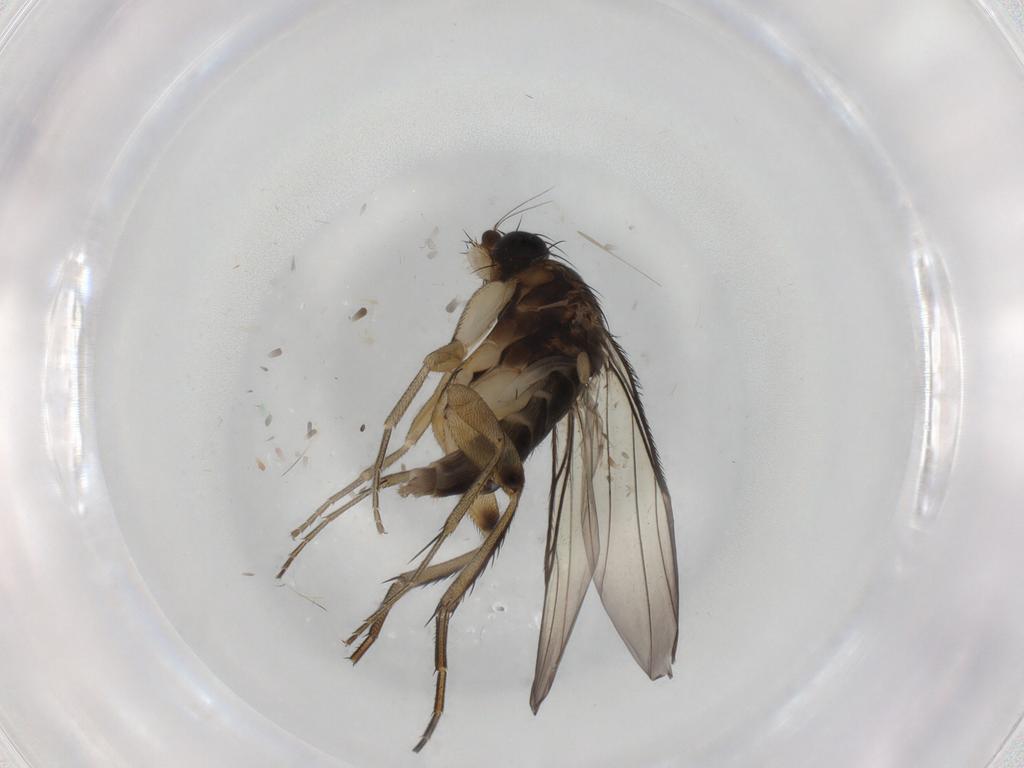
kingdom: Animalia
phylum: Arthropoda
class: Insecta
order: Diptera
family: Phoridae
